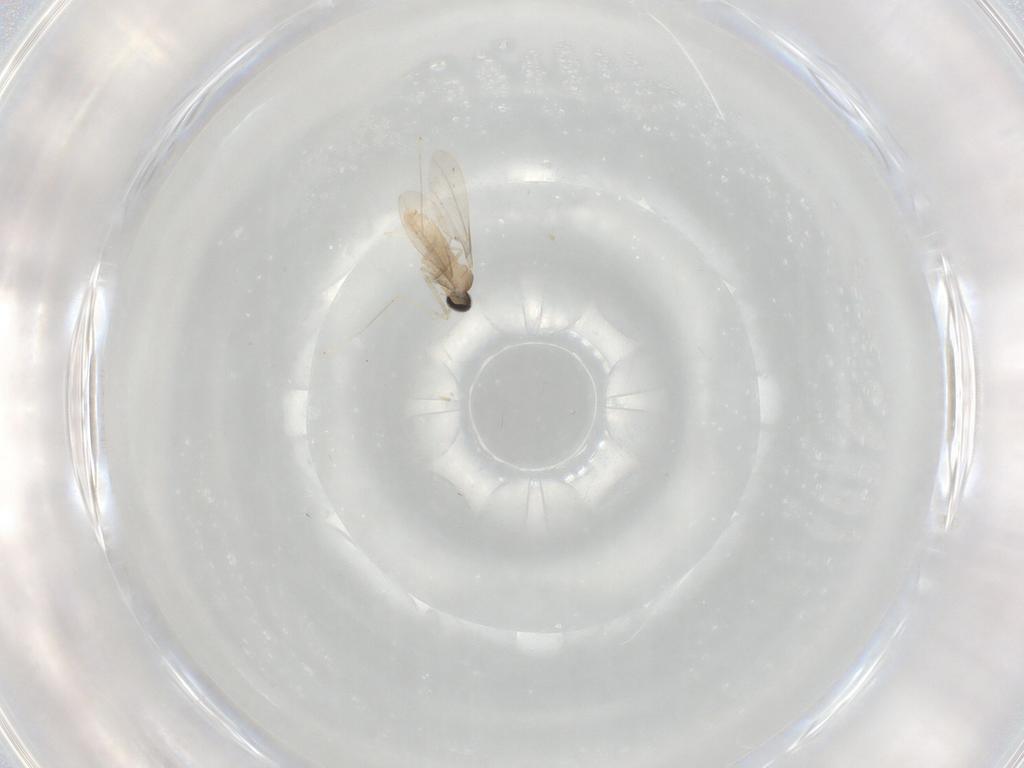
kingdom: Animalia
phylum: Arthropoda
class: Insecta
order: Diptera
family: Cecidomyiidae
